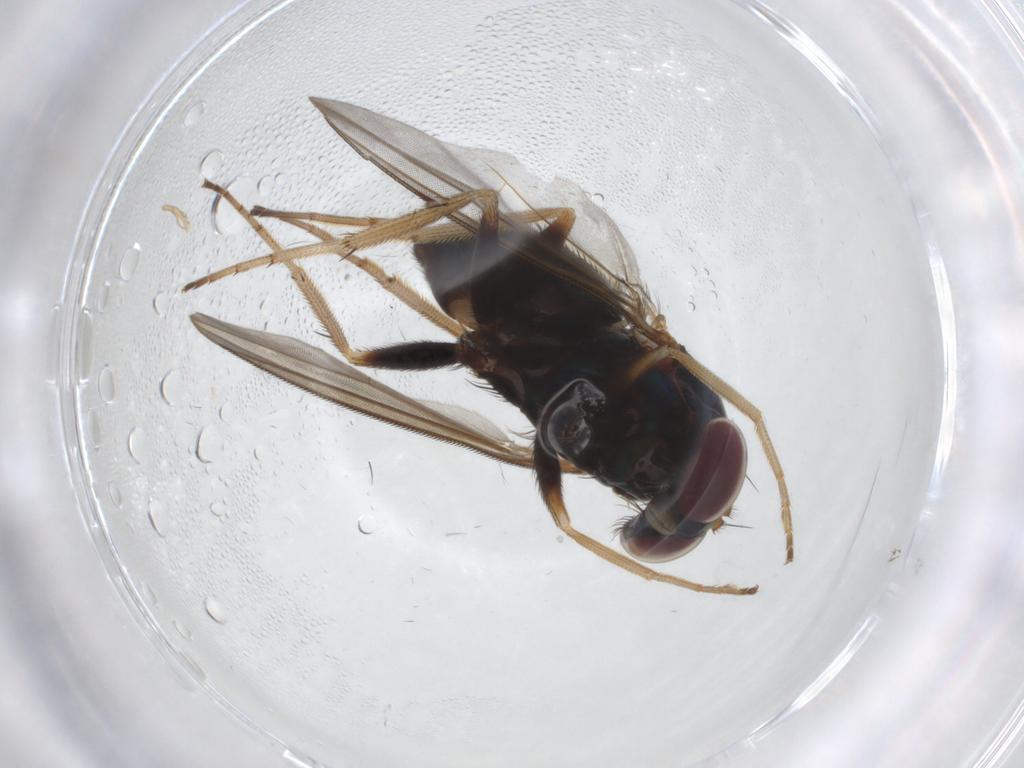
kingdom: Animalia
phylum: Arthropoda
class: Insecta
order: Diptera
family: Dolichopodidae
